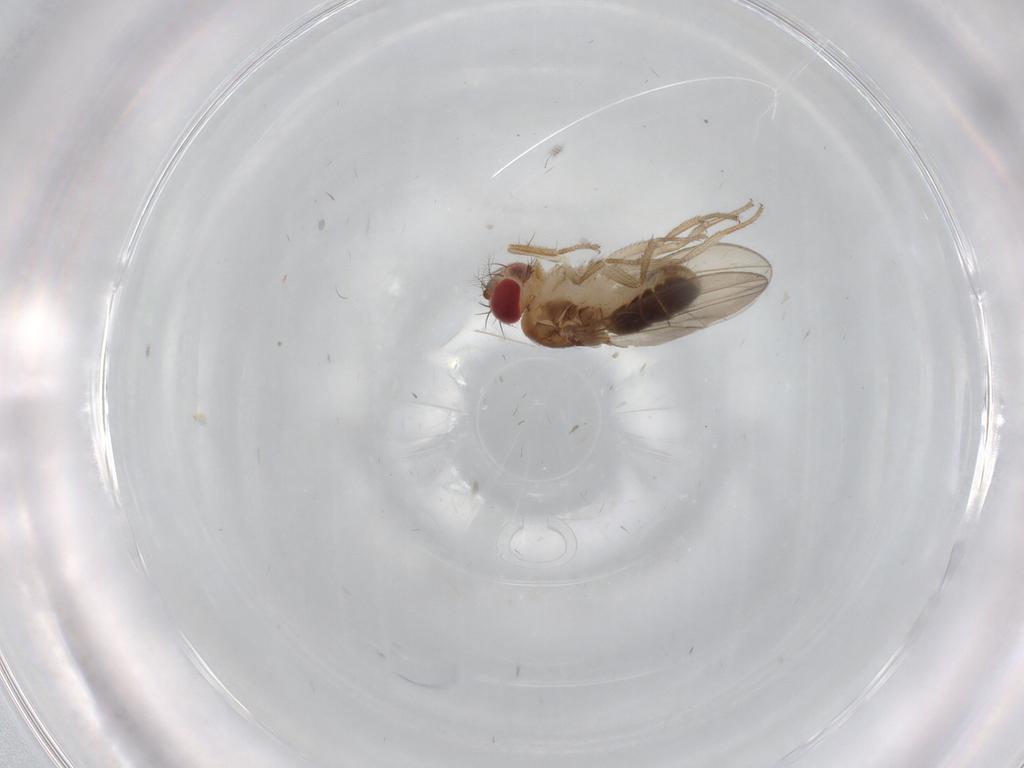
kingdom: Animalia
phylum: Arthropoda
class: Insecta
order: Diptera
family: Drosophilidae
